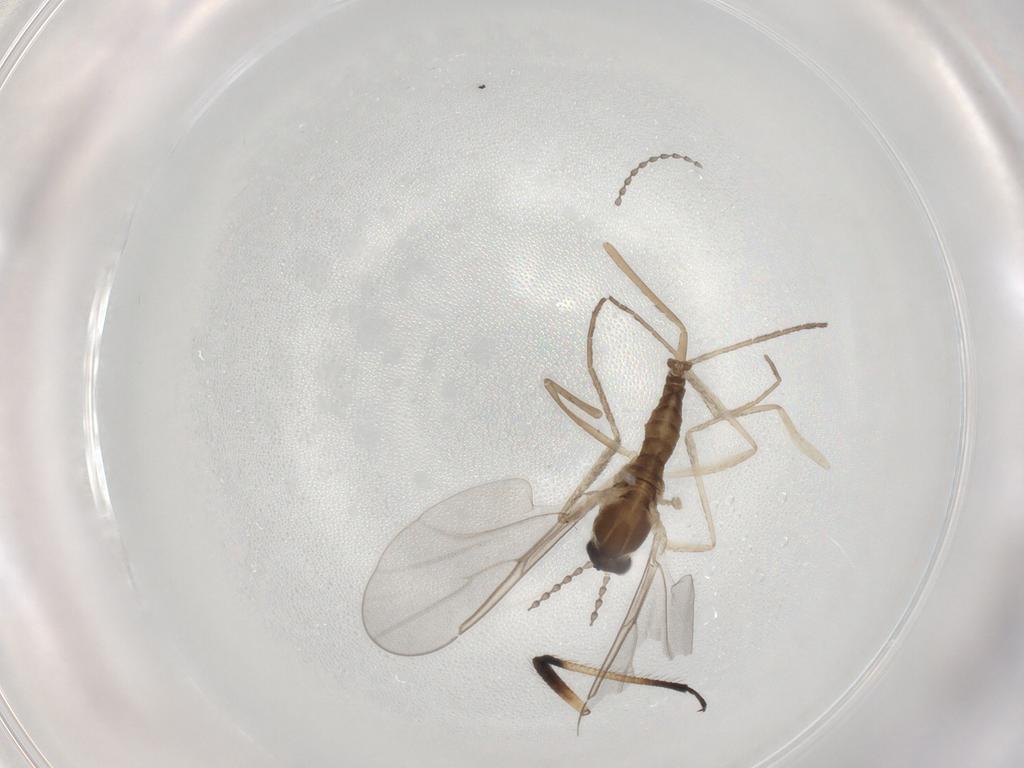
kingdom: Animalia
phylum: Arthropoda
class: Insecta
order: Diptera
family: Cecidomyiidae
